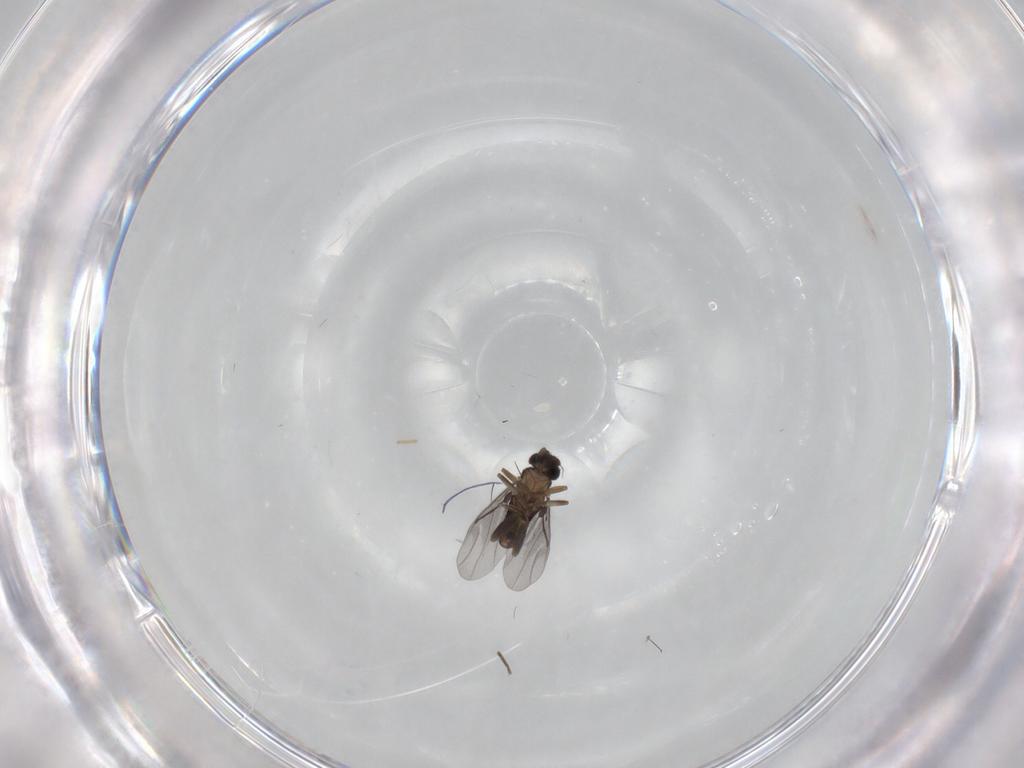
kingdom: Animalia
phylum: Arthropoda
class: Insecta
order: Diptera
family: Phoridae
